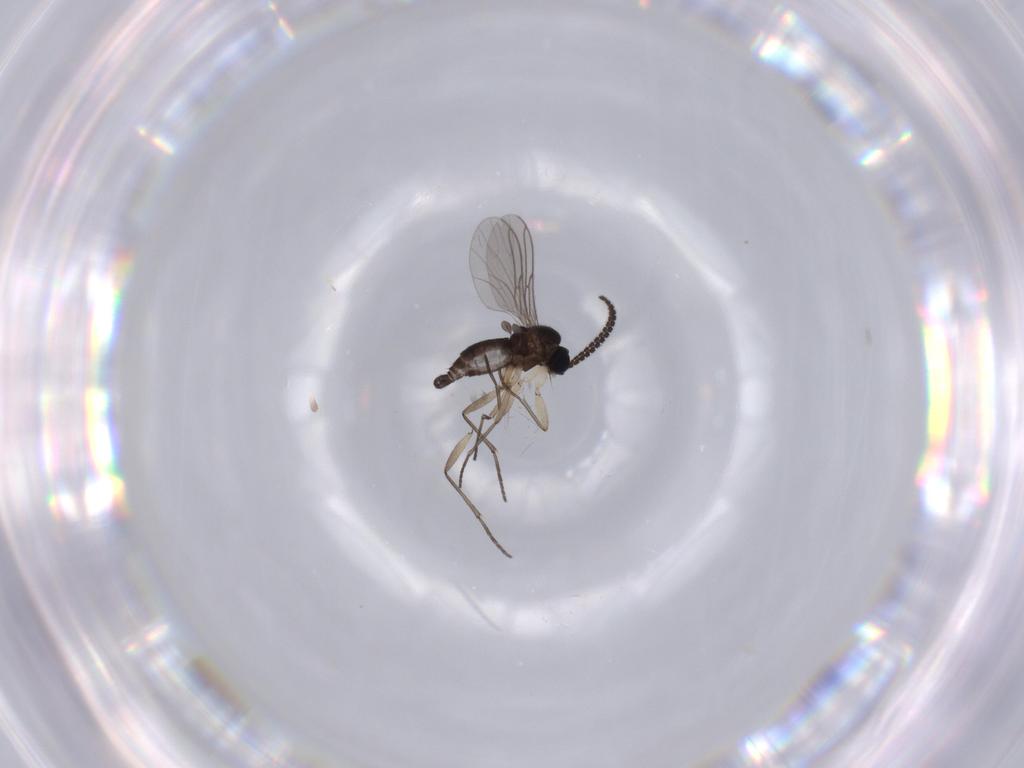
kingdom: Animalia
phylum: Arthropoda
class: Insecta
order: Diptera
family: Sciaridae
